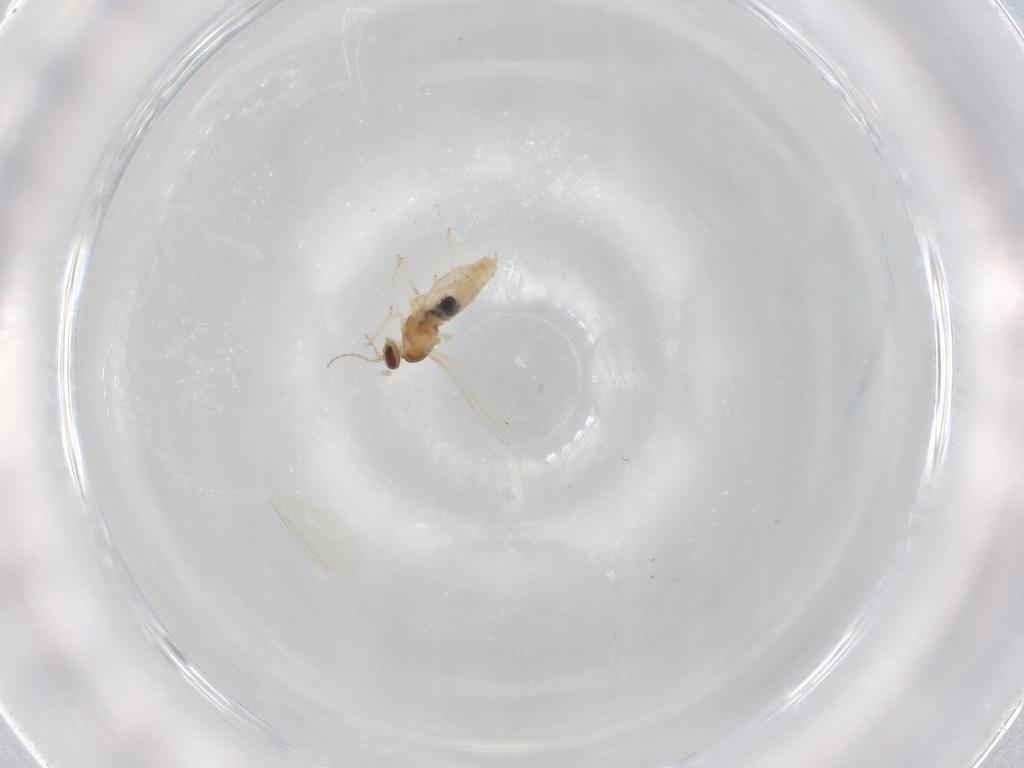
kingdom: Animalia
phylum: Arthropoda
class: Insecta
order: Diptera
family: Cecidomyiidae
